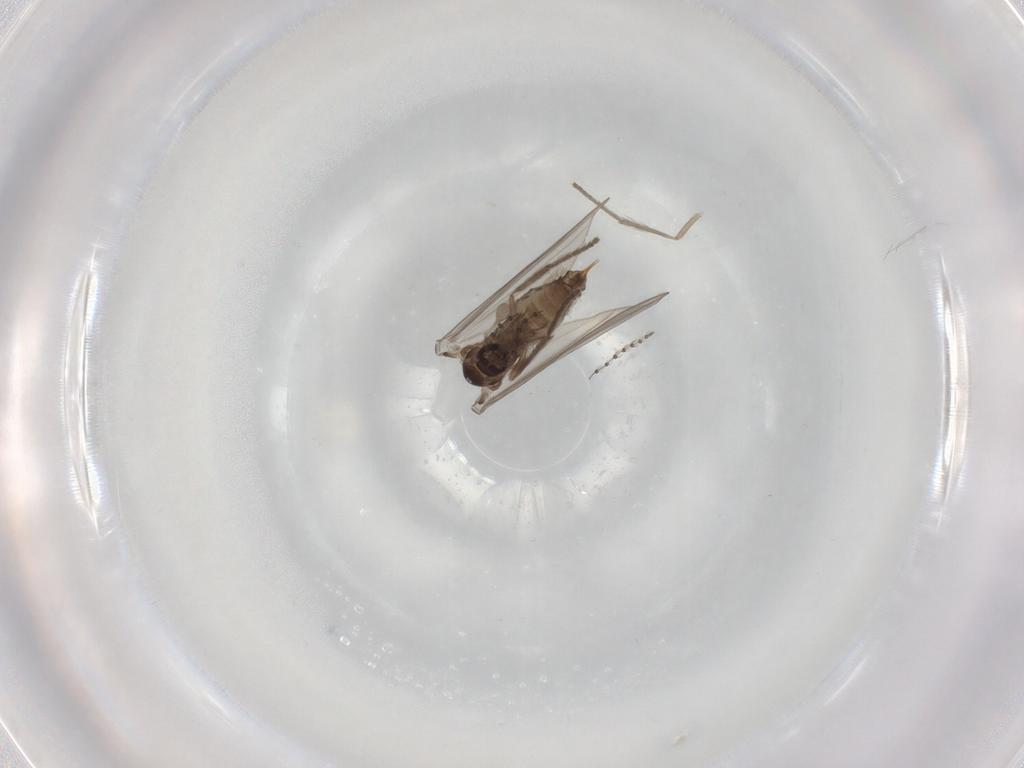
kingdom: Animalia
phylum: Arthropoda
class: Insecta
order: Diptera
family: Psychodidae
